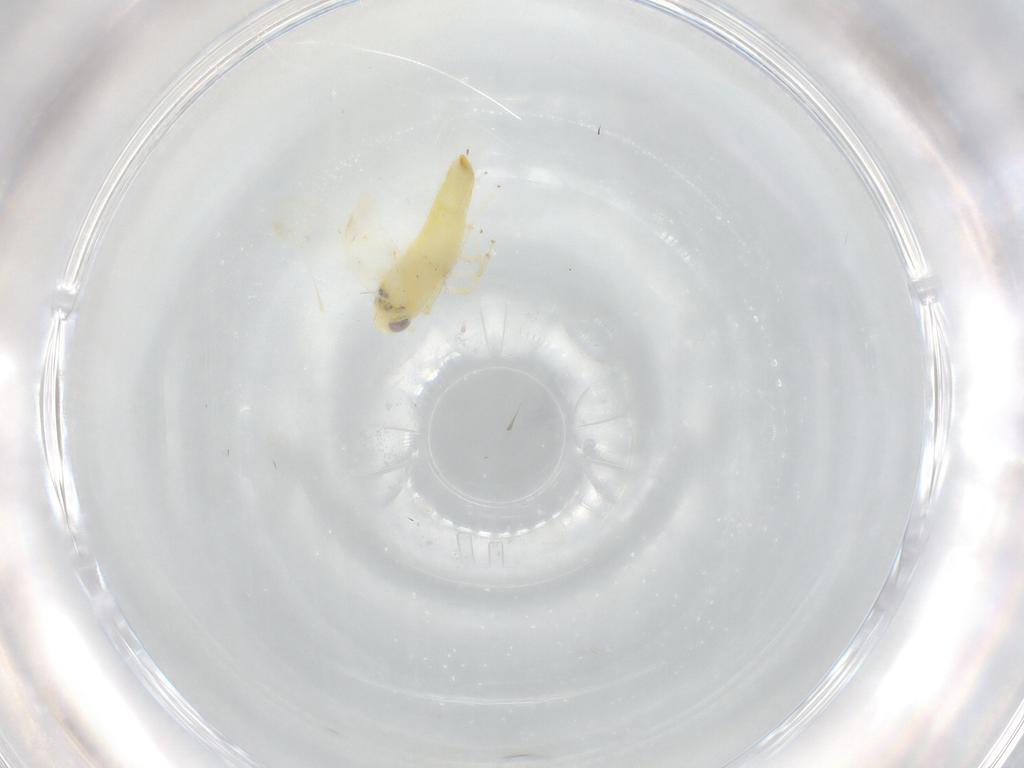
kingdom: Animalia
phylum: Arthropoda
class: Insecta
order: Hemiptera
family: Cicadellidae
